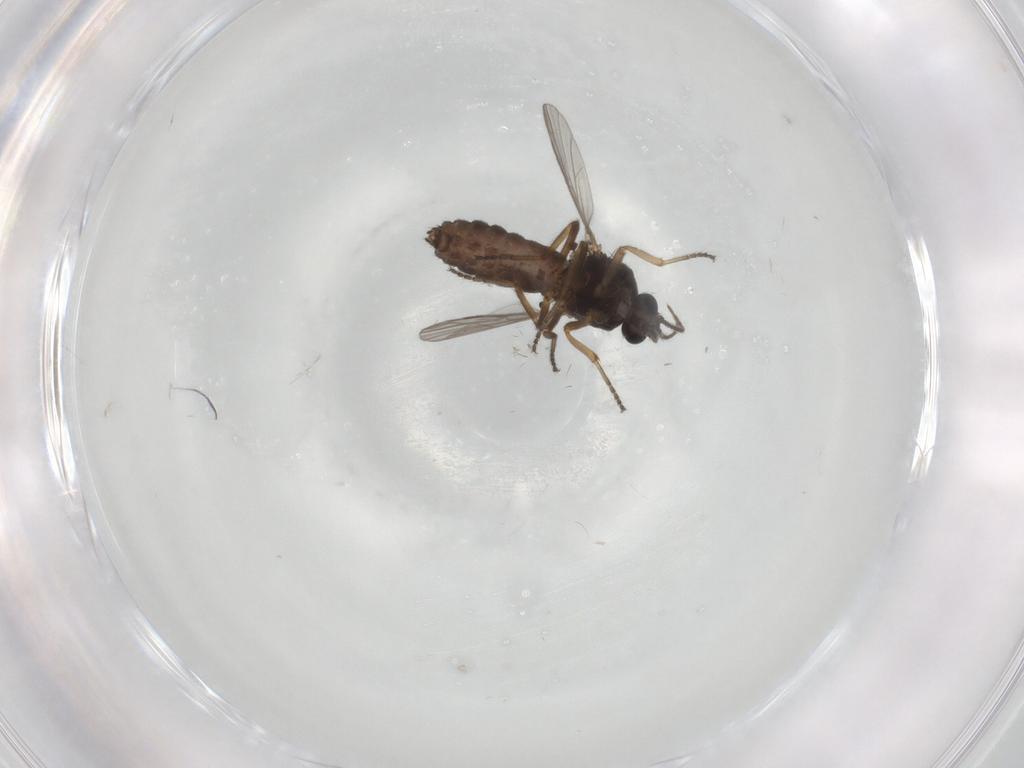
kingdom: Animalia
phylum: Arthropoda
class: Insecta
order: Diptera
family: Ceratopogonidae
